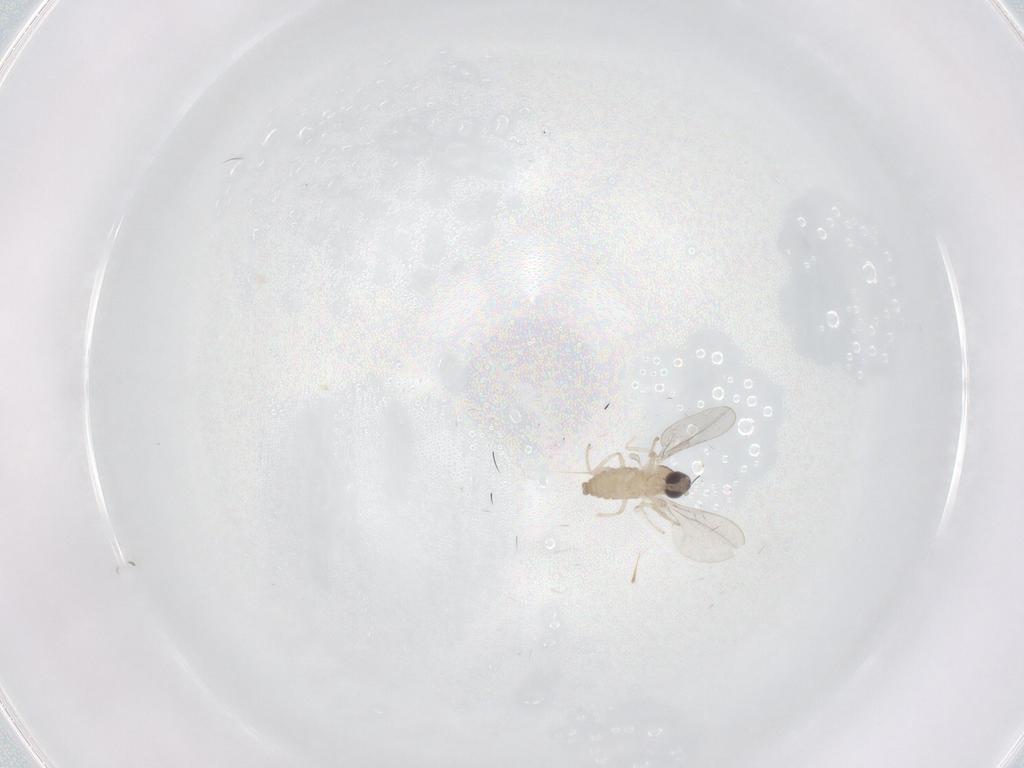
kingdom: Animalia
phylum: Arthropoda
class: Insecta
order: Diptera
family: Cecidomyiidae
